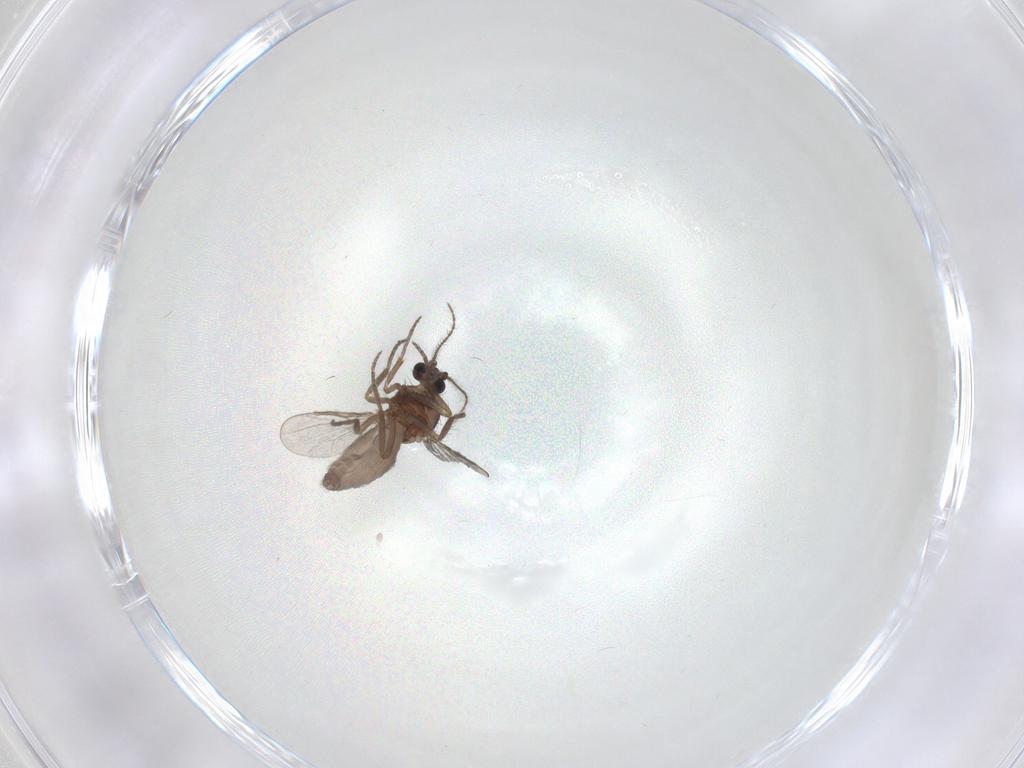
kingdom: Animalia
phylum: Arthropoda
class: Insecta
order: Diptera
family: Limoniidae
